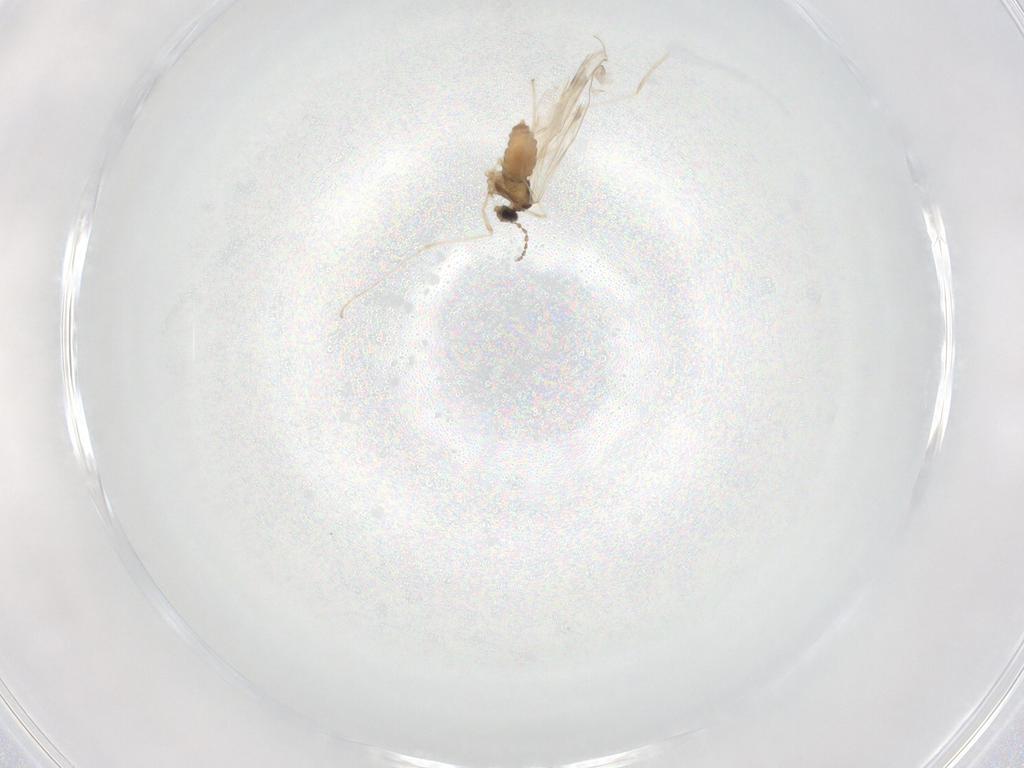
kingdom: Animalia
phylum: Arthropoda
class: Insecta
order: Diptera
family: Cecidomyiidae
